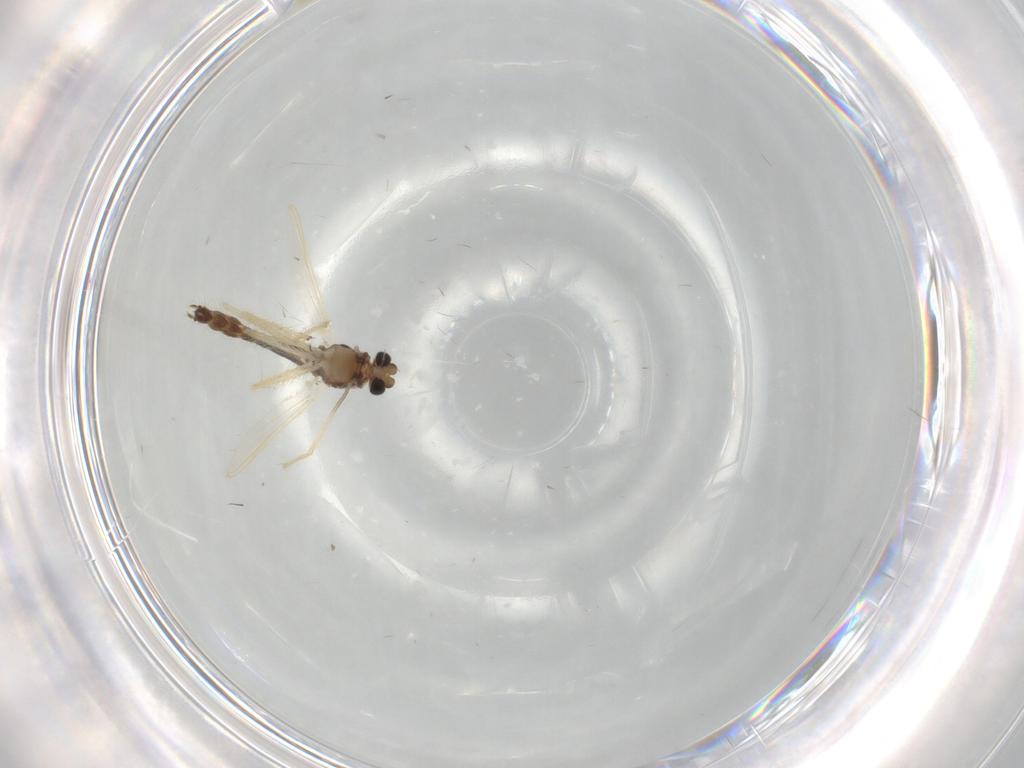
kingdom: Animalia
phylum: Arthropoda
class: Insecta
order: Diptera
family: Chironomidae
